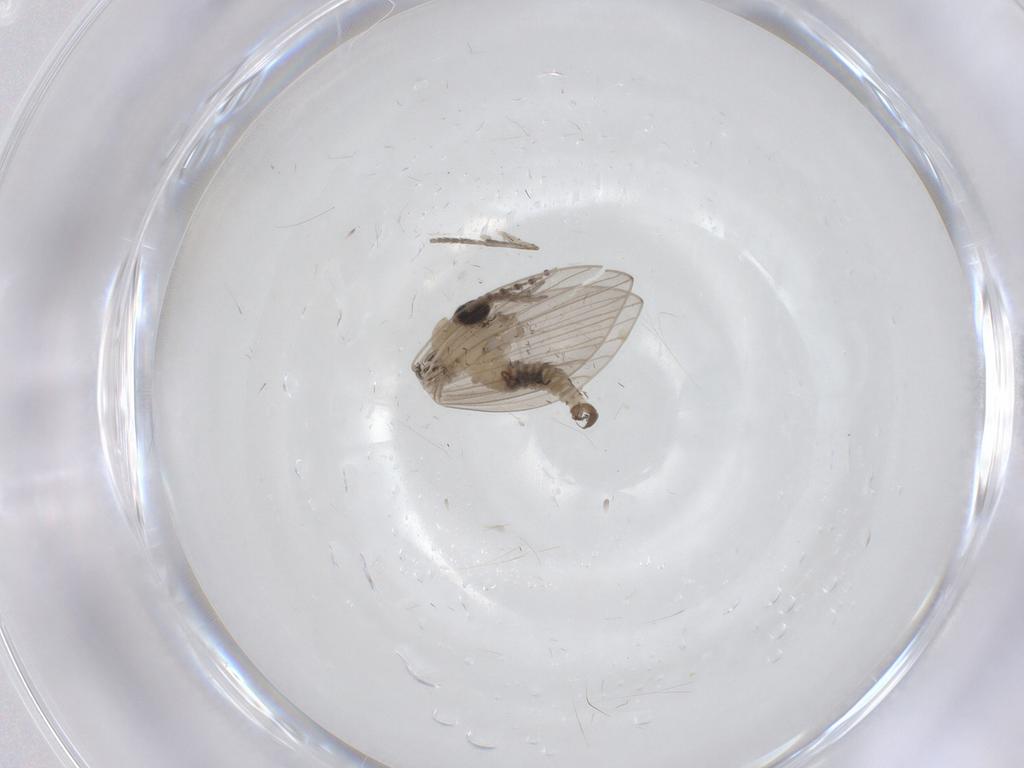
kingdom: Animalia
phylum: Arthropoda
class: Insecta
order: Diptera
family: Psychodidae
